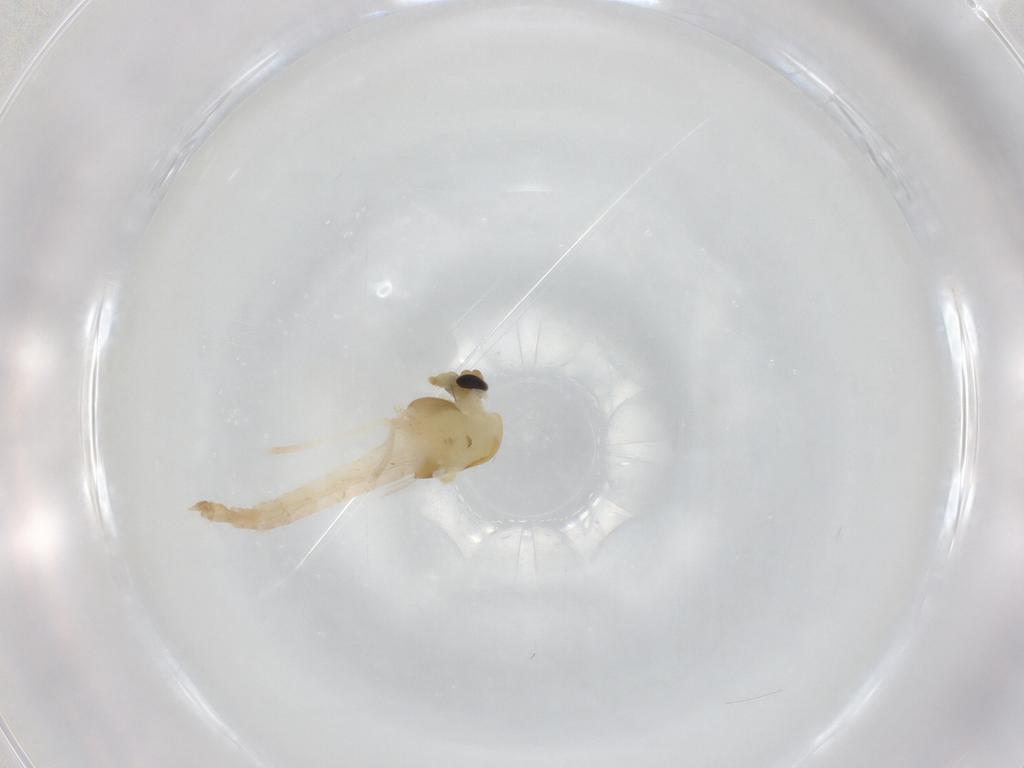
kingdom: Animalia
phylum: Arthropoda
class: Insecta
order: Diptera
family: Chironomidae
